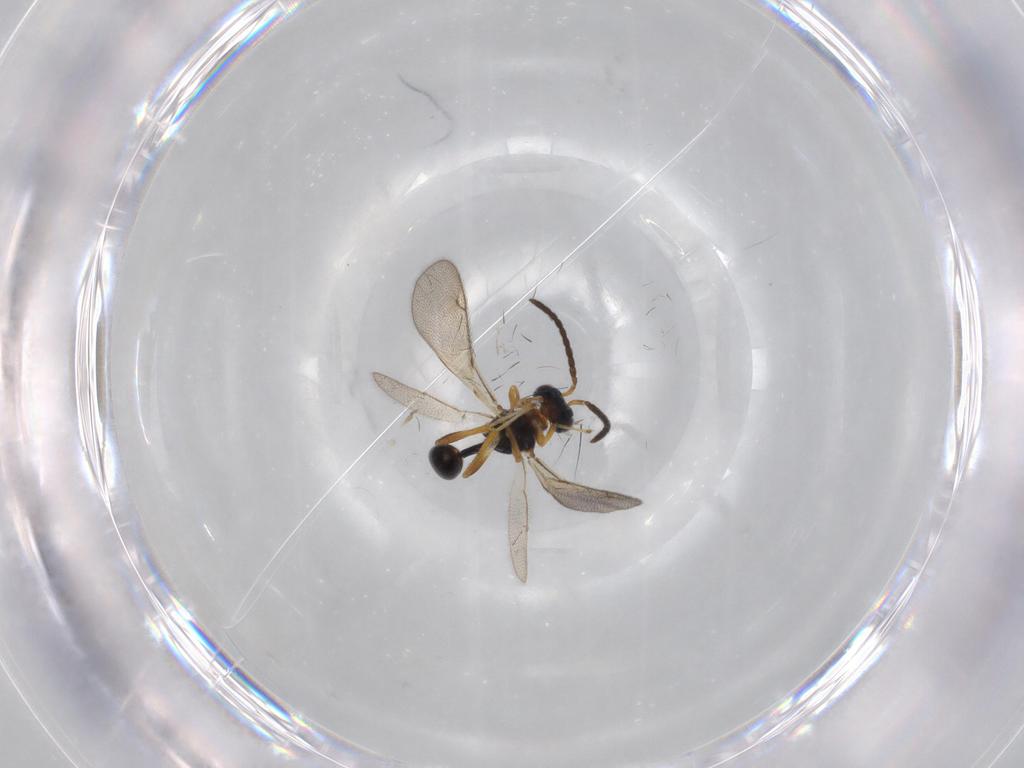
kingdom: Animalia
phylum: Arthropoda
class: Insecta
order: Hymenoptera
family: Diparidae
